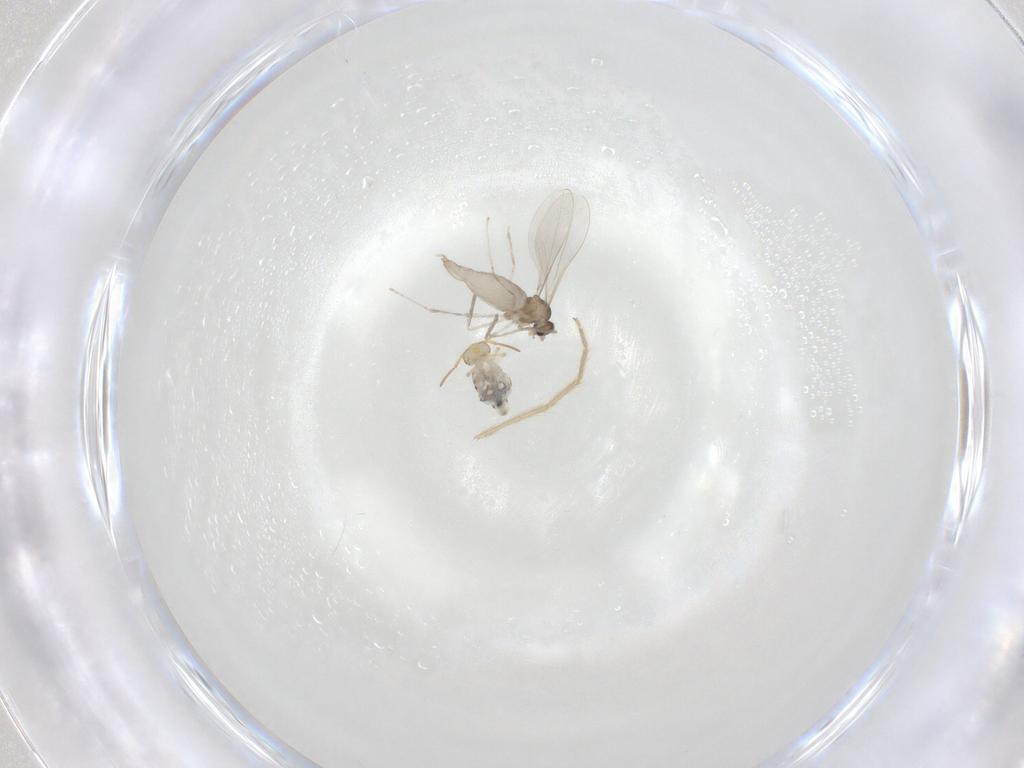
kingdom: Animalia
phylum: Arthropoda
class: Insecta
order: Diptera
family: Cecidomyiidae
